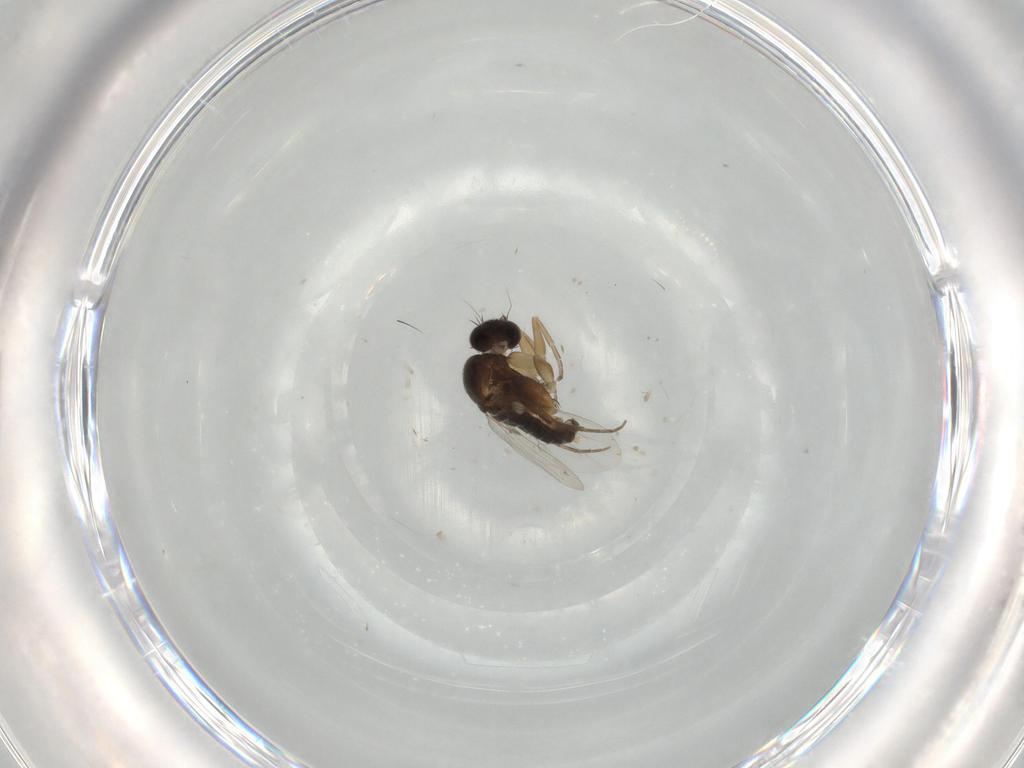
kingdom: Animalia
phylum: Arthropoda
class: Insecta
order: Diptera
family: Phoridae
